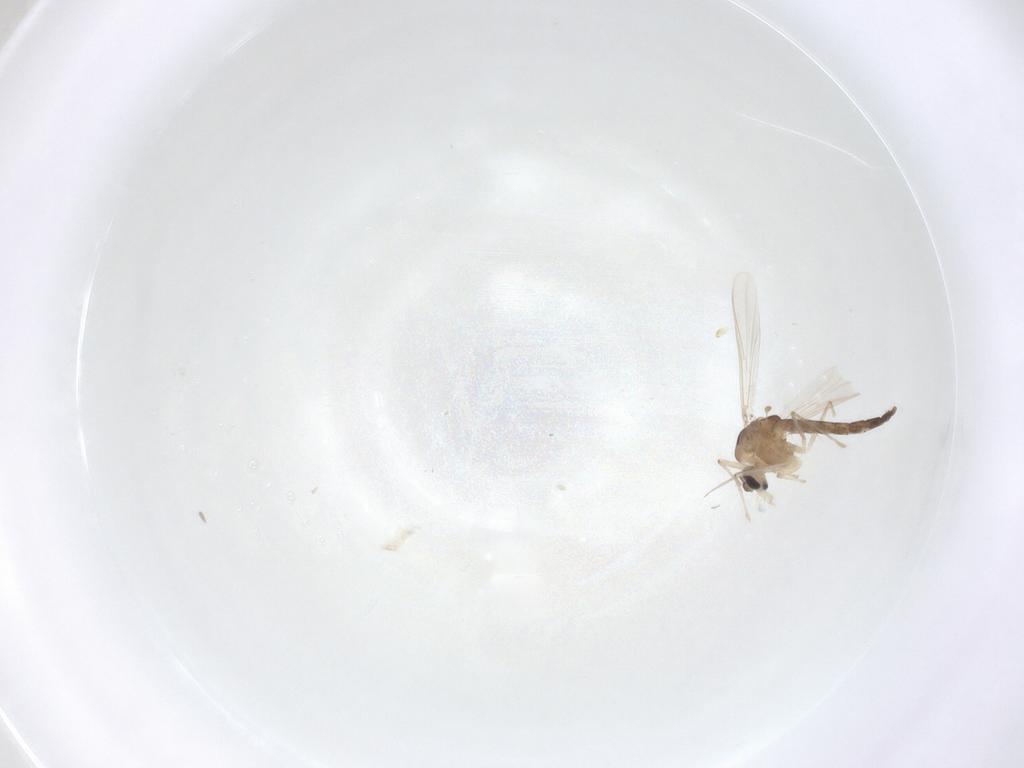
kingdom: Animalia
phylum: Arthropoda
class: Insecta
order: Diptera
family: Chironomidae
